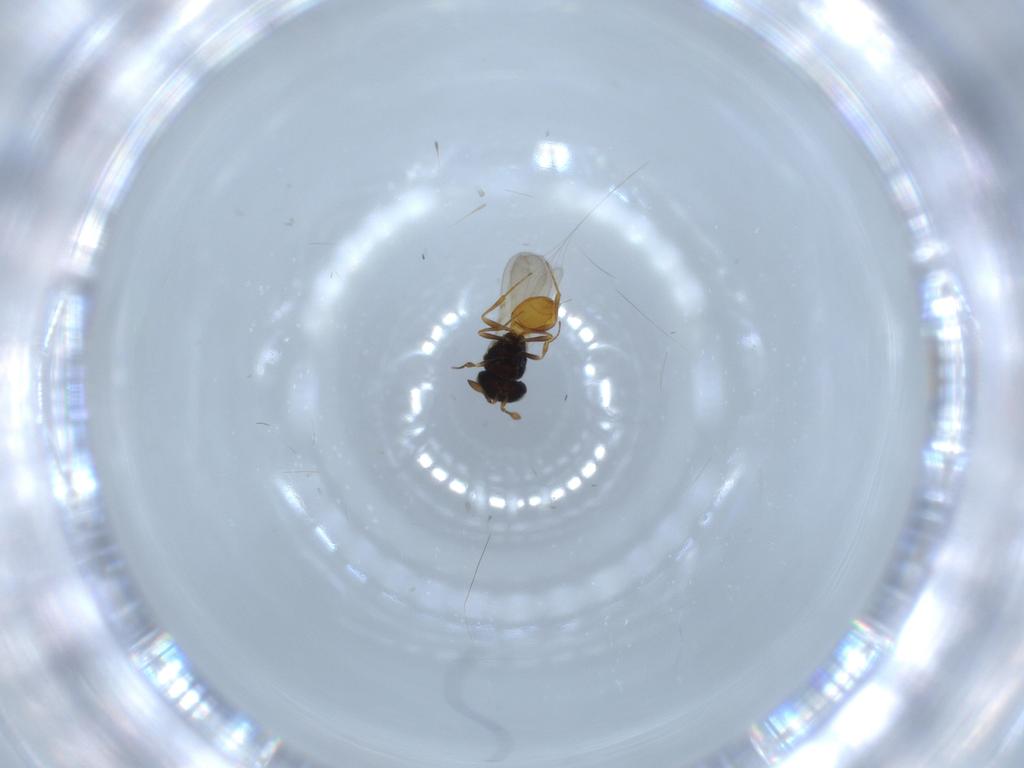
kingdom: Animalia
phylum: Arthropoda
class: Insecta
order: Hymenoptera
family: Scelionidae
